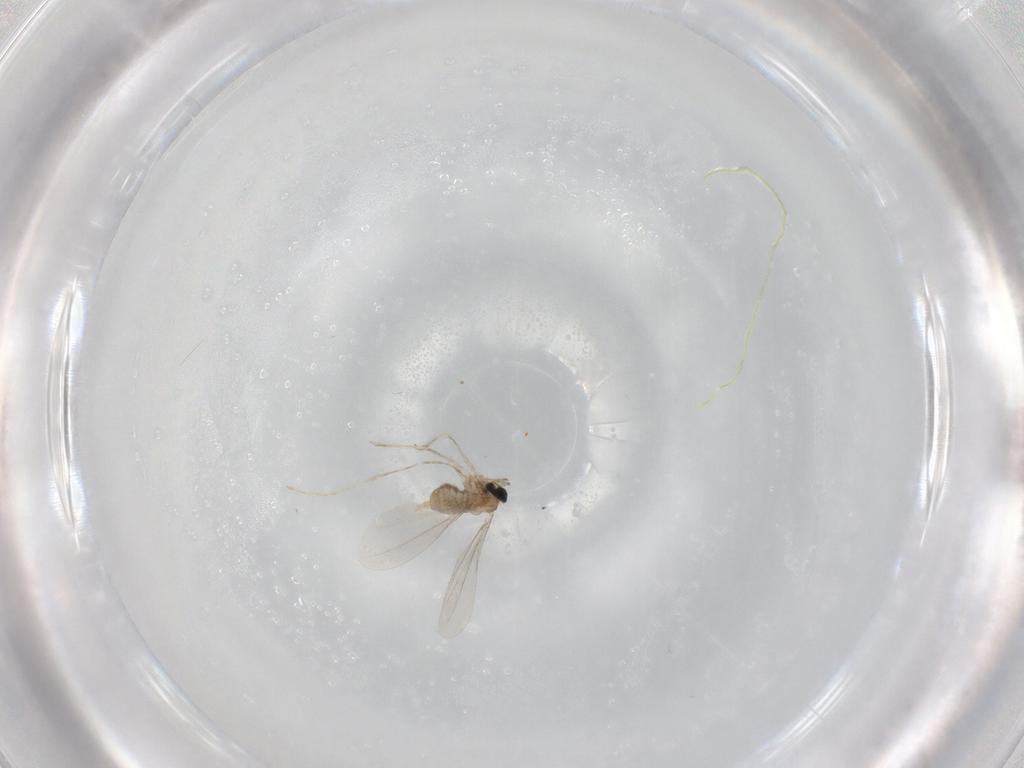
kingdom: Animalia
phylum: Arthropoda
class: Insecta
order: Diptera
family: Cecidomyiidae
